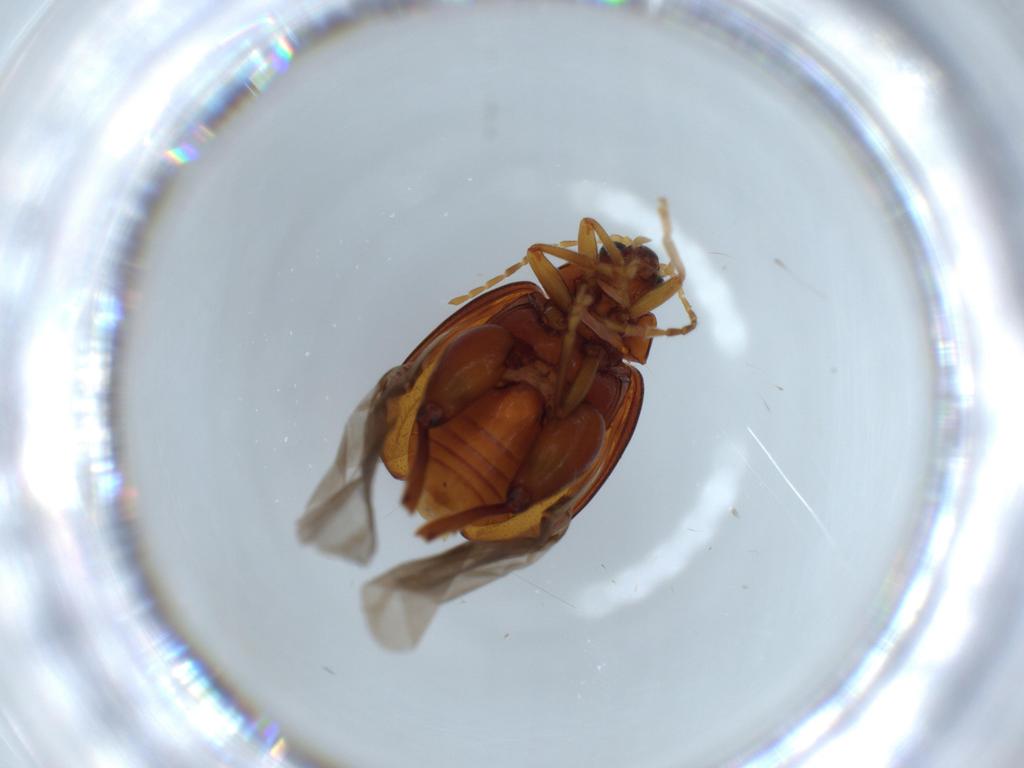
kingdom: Animalia
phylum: Arthropoda
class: Insecta
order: Coleoptera
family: Chrysomelidae
